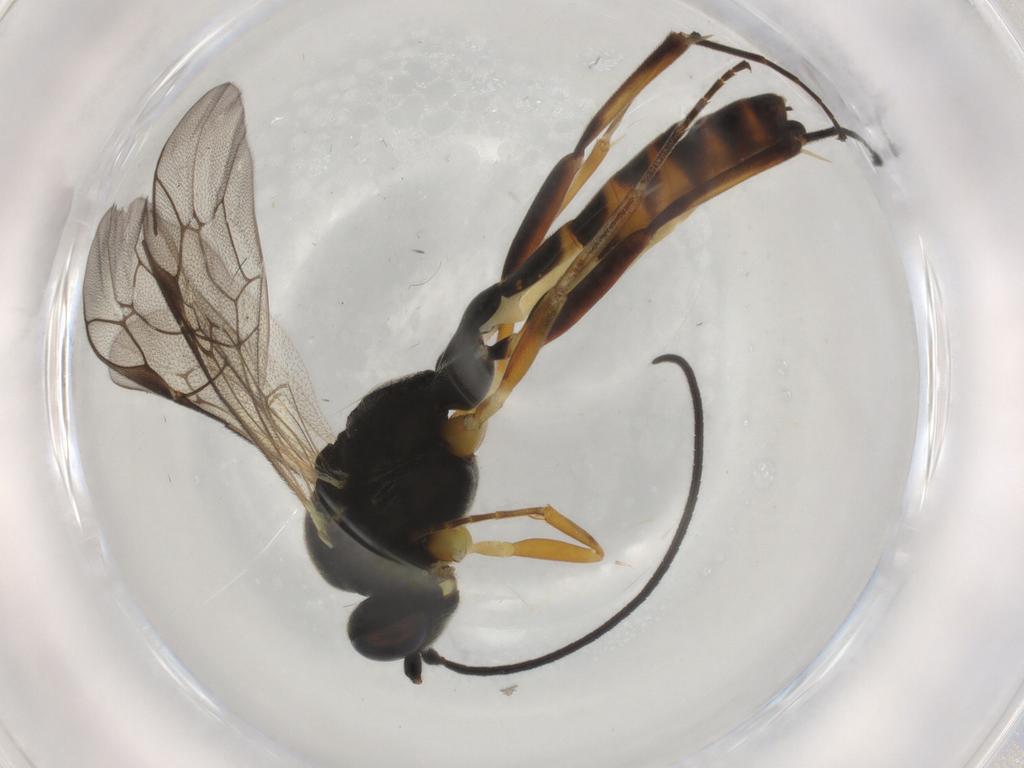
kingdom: Animalia
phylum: Arthropoda
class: Insecta
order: Hymenoptera
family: Mymaridae
